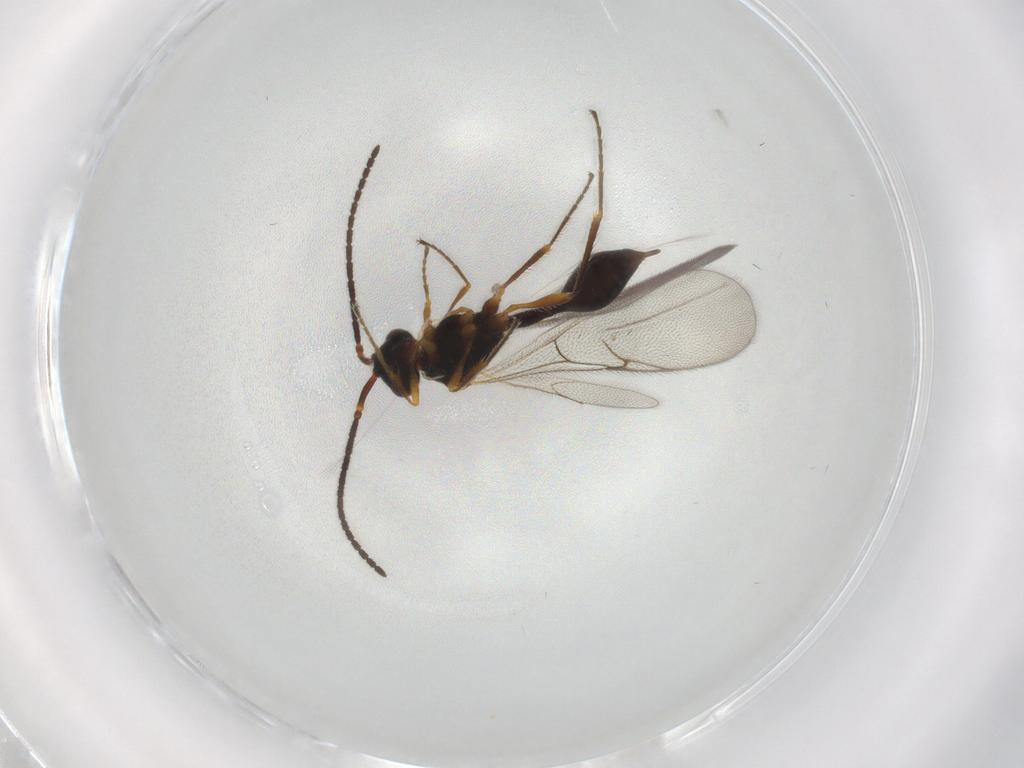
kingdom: Animalia
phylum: Arthropoda
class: Insecta
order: Hymenoptera
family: Diapriidae
